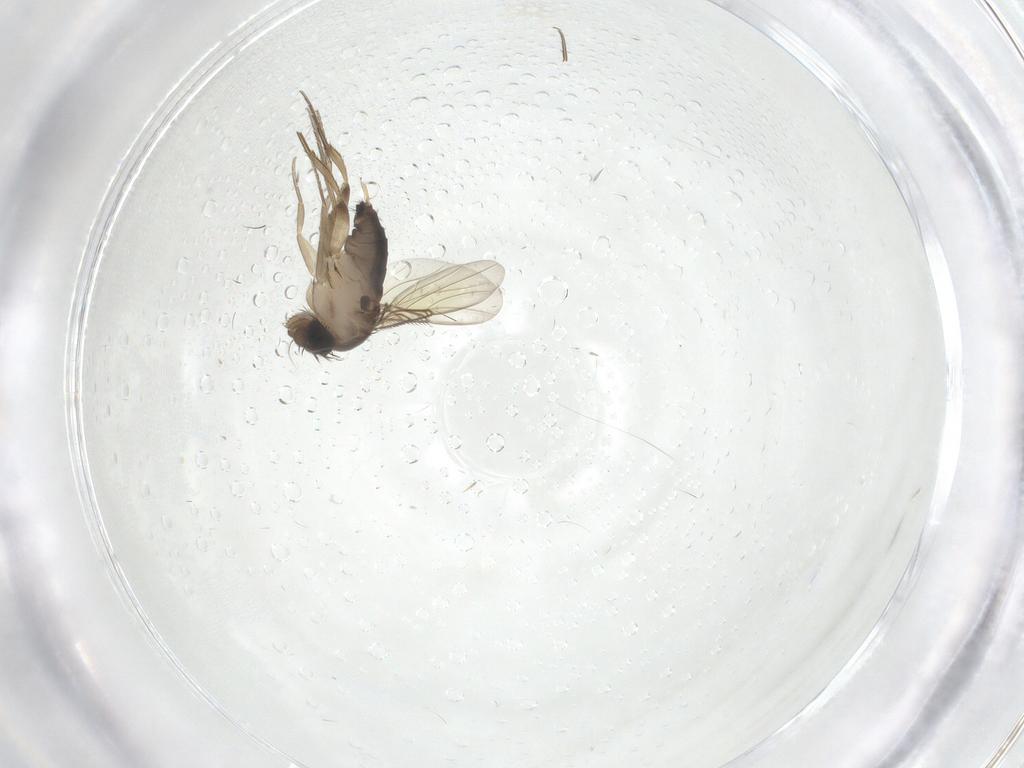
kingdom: Animalia
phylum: Arthropoda
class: Insecta
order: Diptera
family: Phoridae
